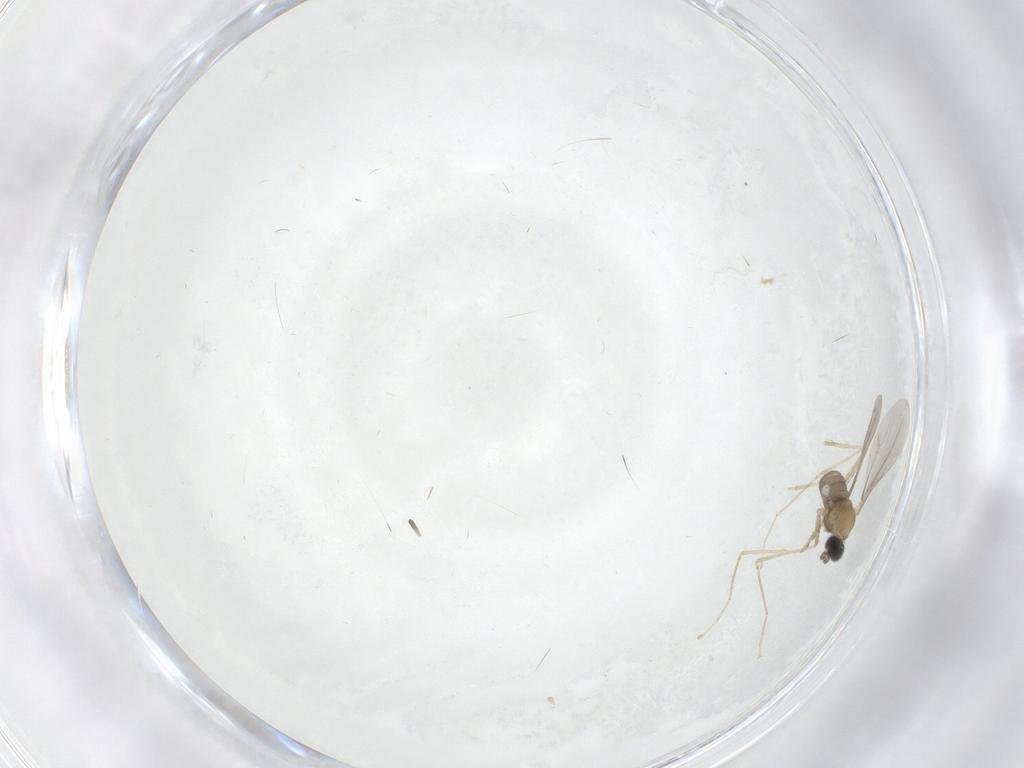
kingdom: Animalia
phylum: Arthropoda
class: Insecta
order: Diptera
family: Cecidomyiidae
